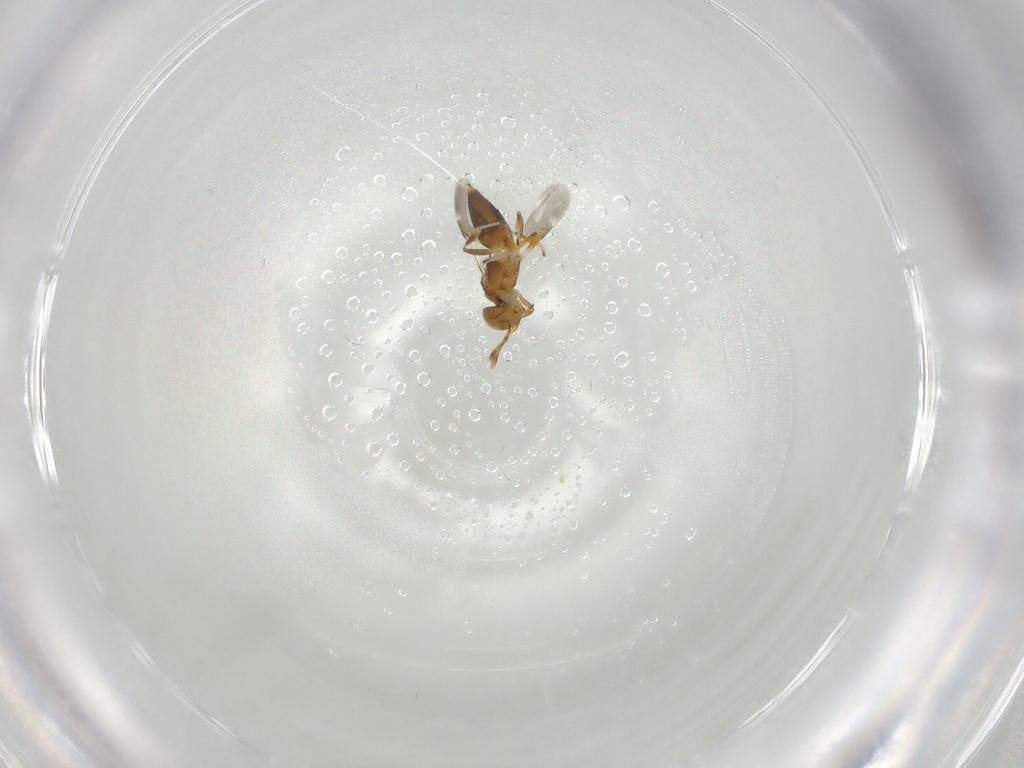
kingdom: Animalia
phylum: Arthropoda
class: Insecta
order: Hymenoptera
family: Encyrtidae
